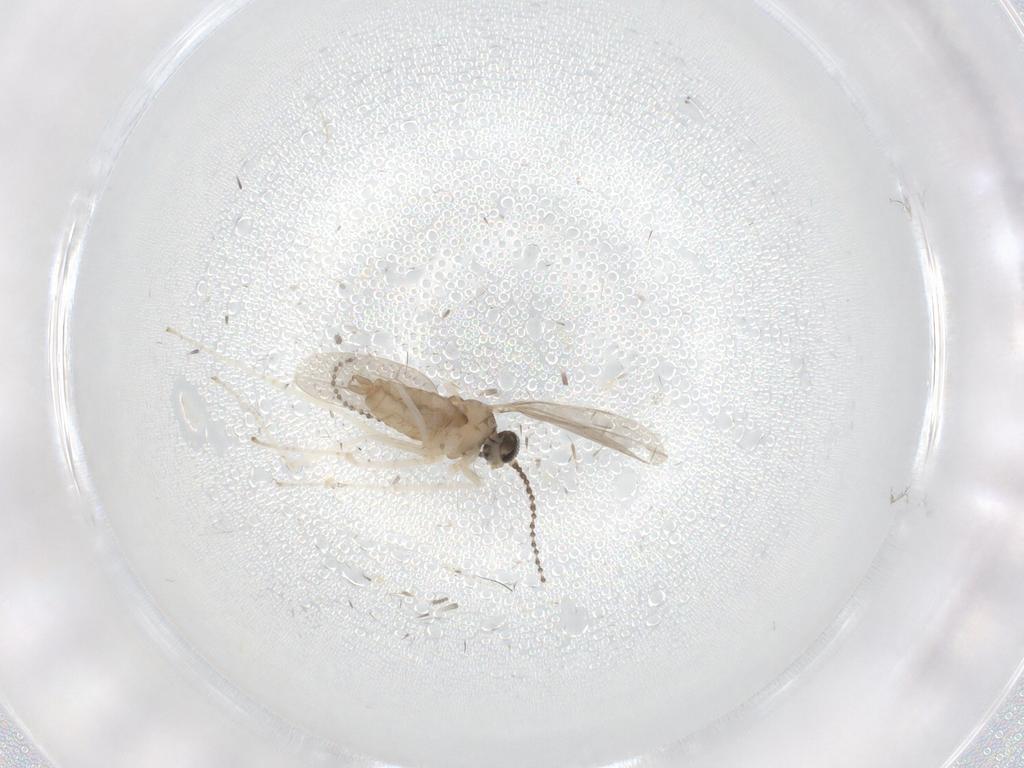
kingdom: Animalia
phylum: Arthropoda
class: Insecta
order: Diptera
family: Cecidomyiidae
